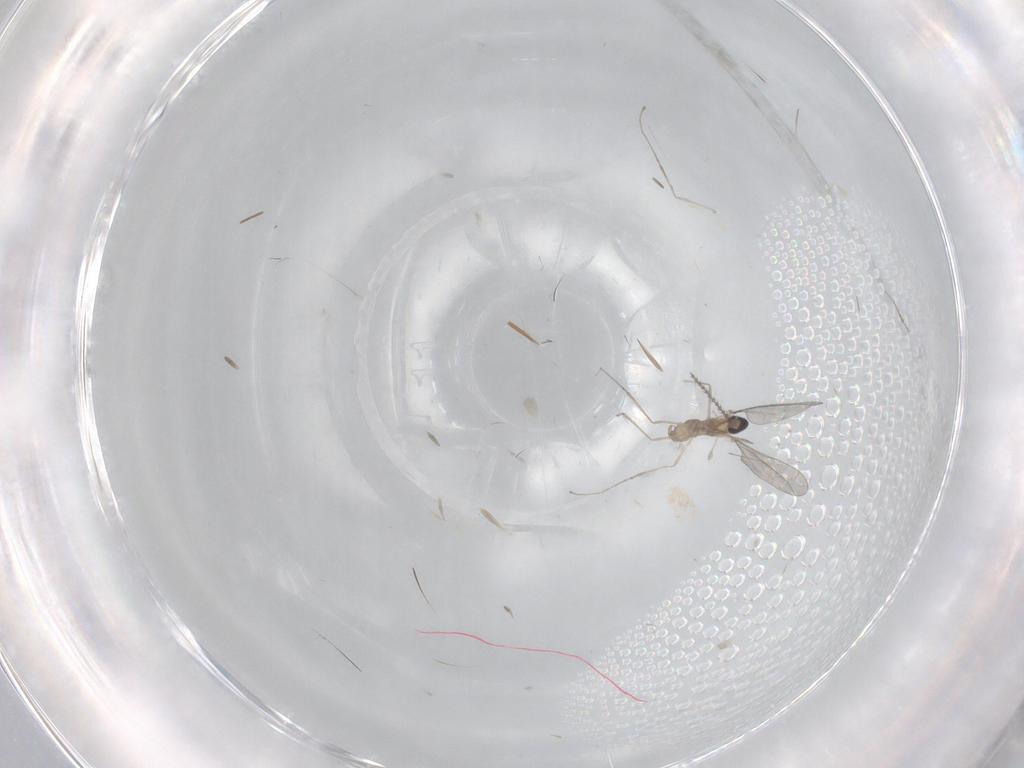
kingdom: Animalia
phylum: Arthropoda
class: Insecta
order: Diptera
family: Cecidomyiidae
